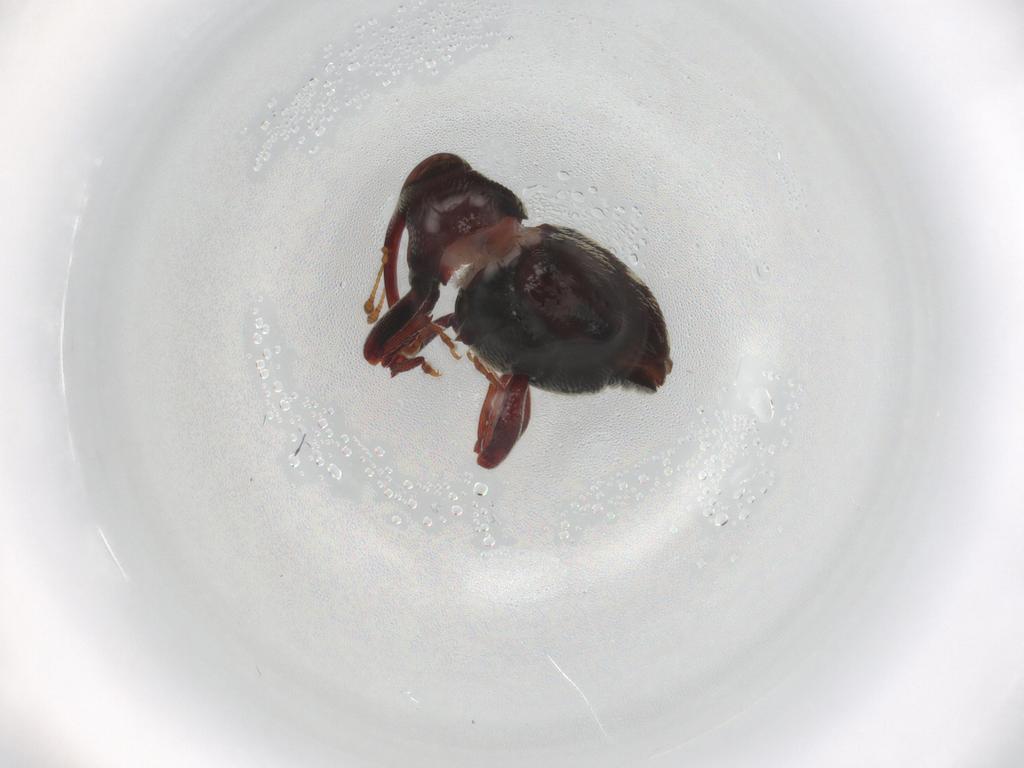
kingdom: Animalia
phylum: Arthropoda
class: Insecta
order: Coleoptera
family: Curculionidae
